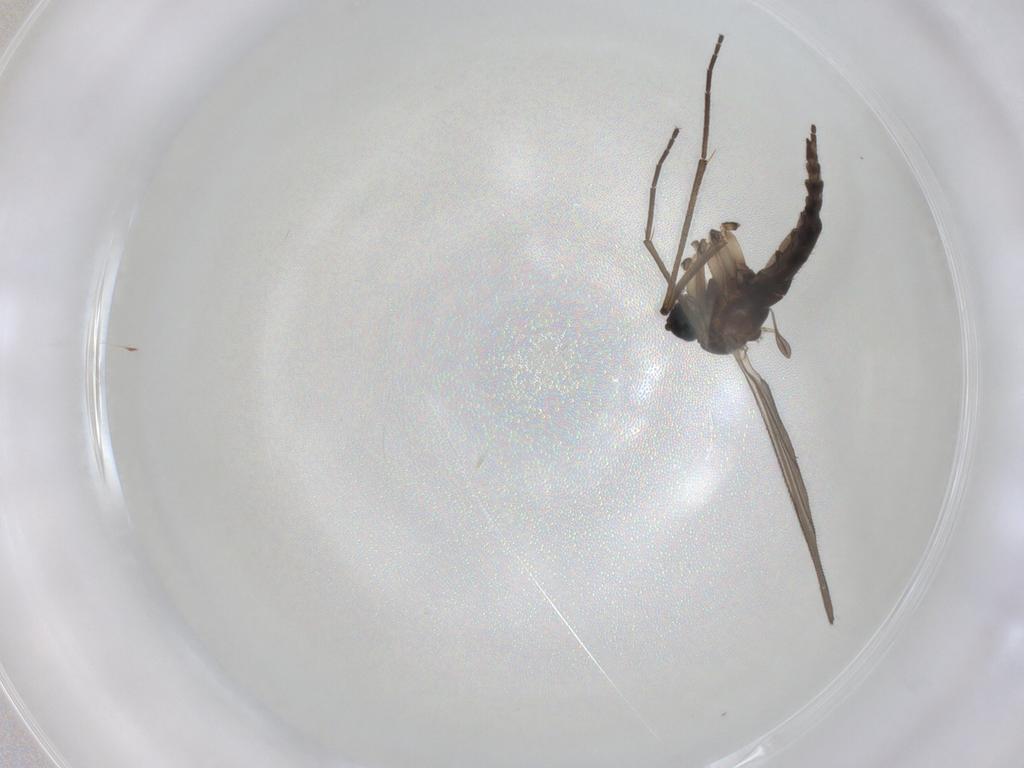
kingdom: Animalia
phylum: Arthropoda
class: Insecta
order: Diptera
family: Sciaridae
